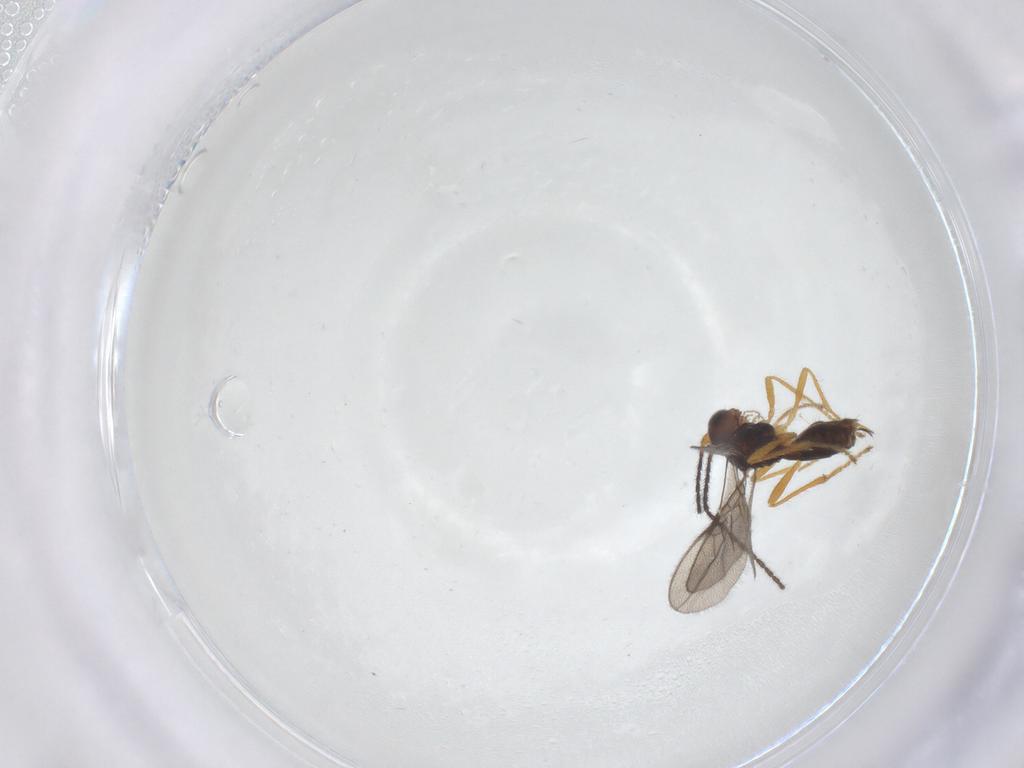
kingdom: Animalia
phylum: Arthropoda
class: Insecta
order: Hymenoptera
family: Braconidae
